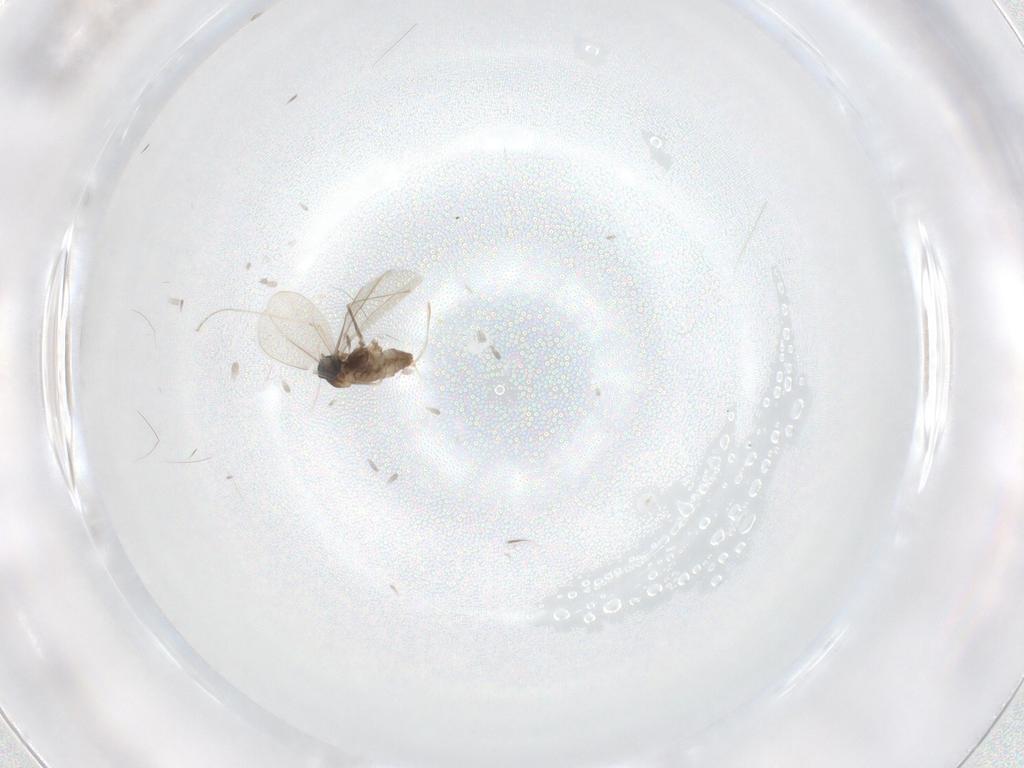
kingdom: Animalia
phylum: Arthropoda
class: Insecta
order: Diptera
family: Cecidomyiidae
